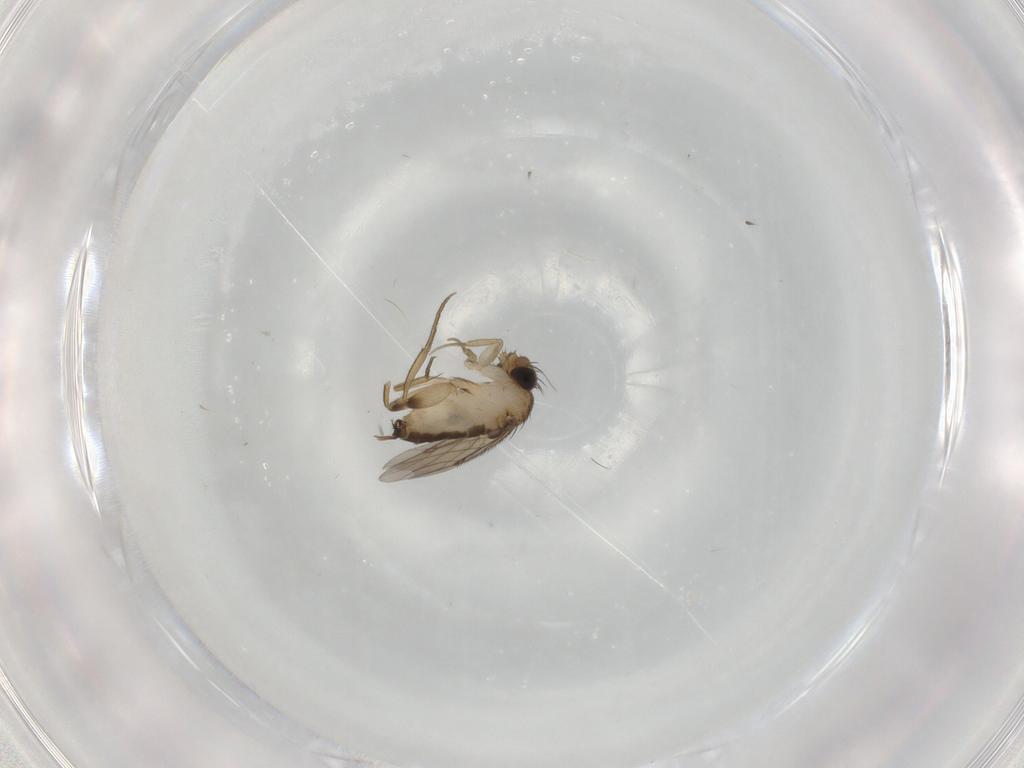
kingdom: Animalia
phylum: Arthropoda
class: Insecta
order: Diptera
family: Phoridae
